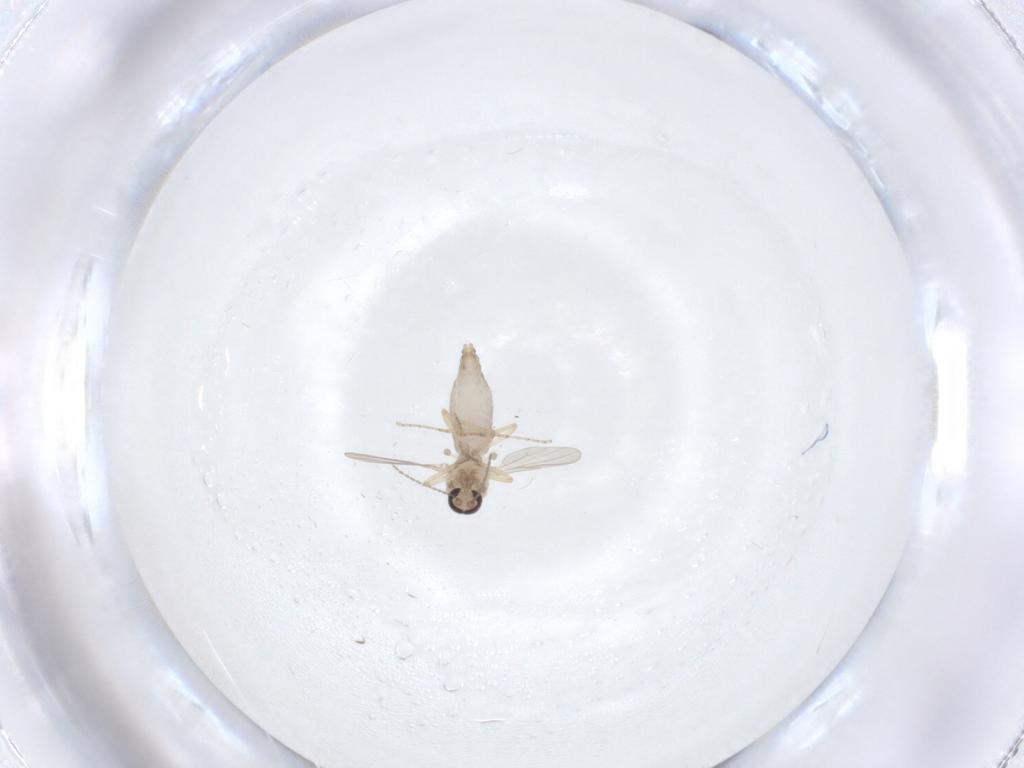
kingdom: Animalia
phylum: Arthropoda
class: Insecta
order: Diptera
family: Ceratopogonidae
